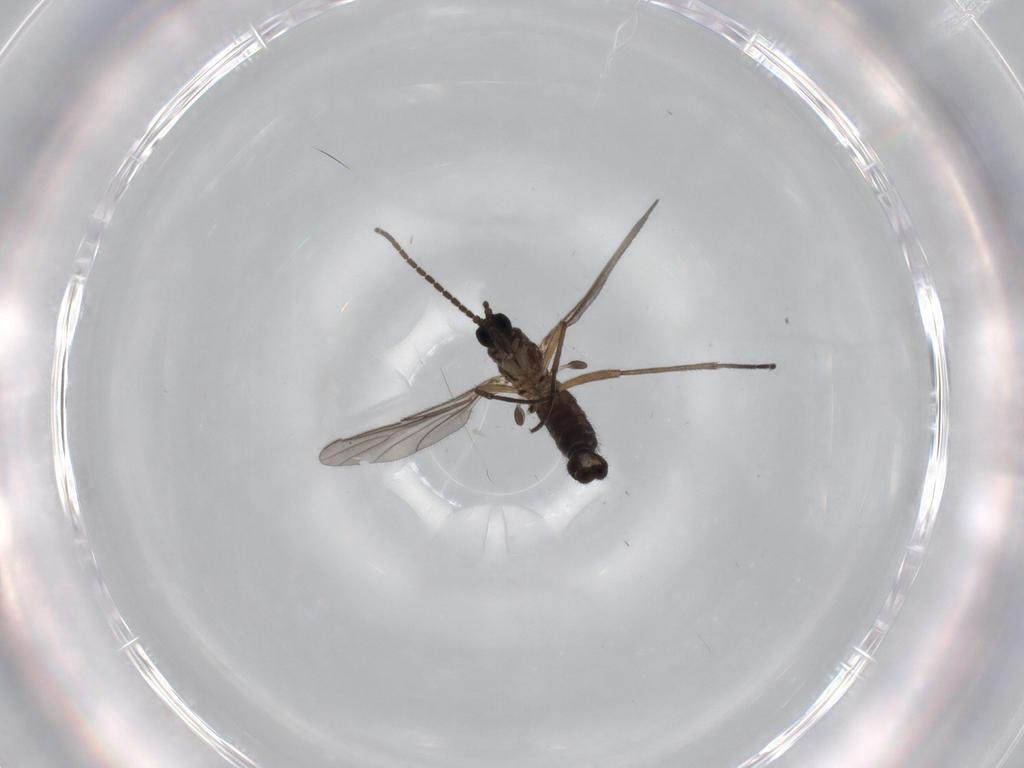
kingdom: Animalia
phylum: Arthropoda
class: Insecta
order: Diptera
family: Sciaridae
